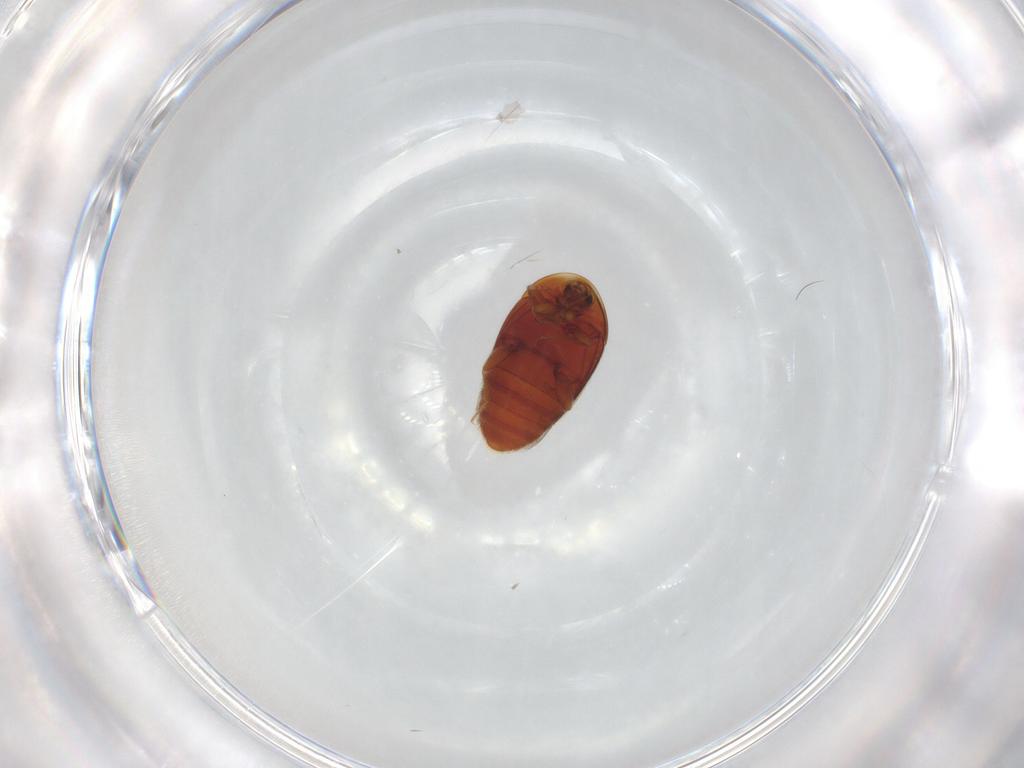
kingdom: Animalia
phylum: Arthropoda
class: Insecta
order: Coleoptera
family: Corylophidae
